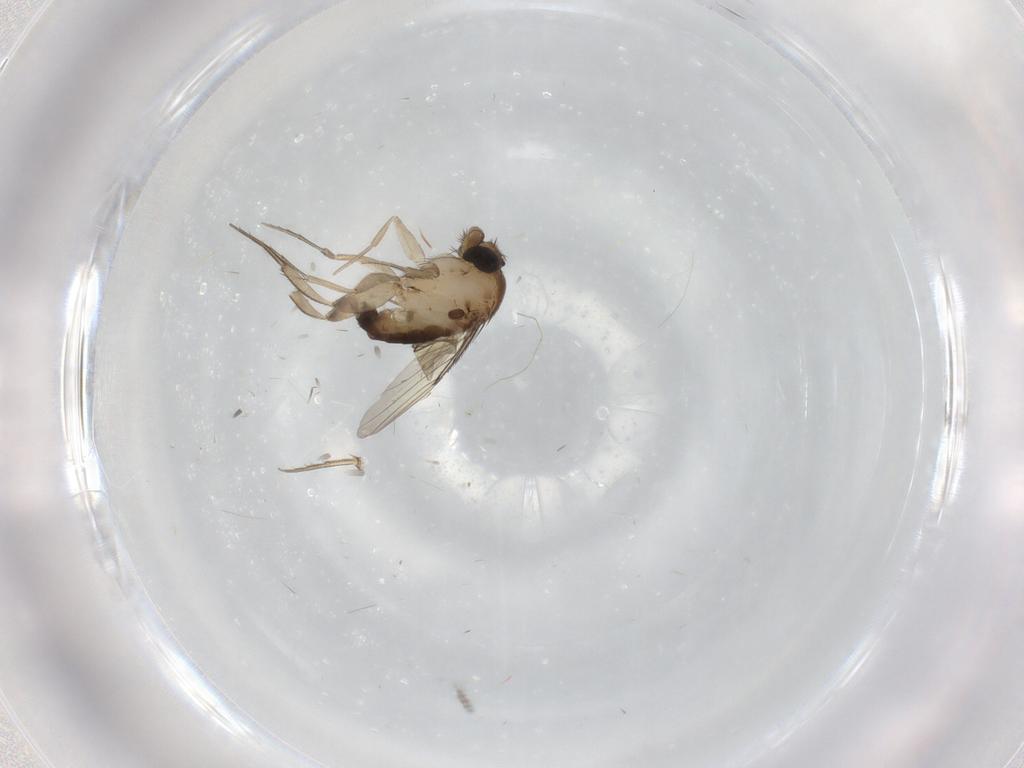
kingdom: Animalia
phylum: Arthropoda
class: Insecta
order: Diptera
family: Phoridae
